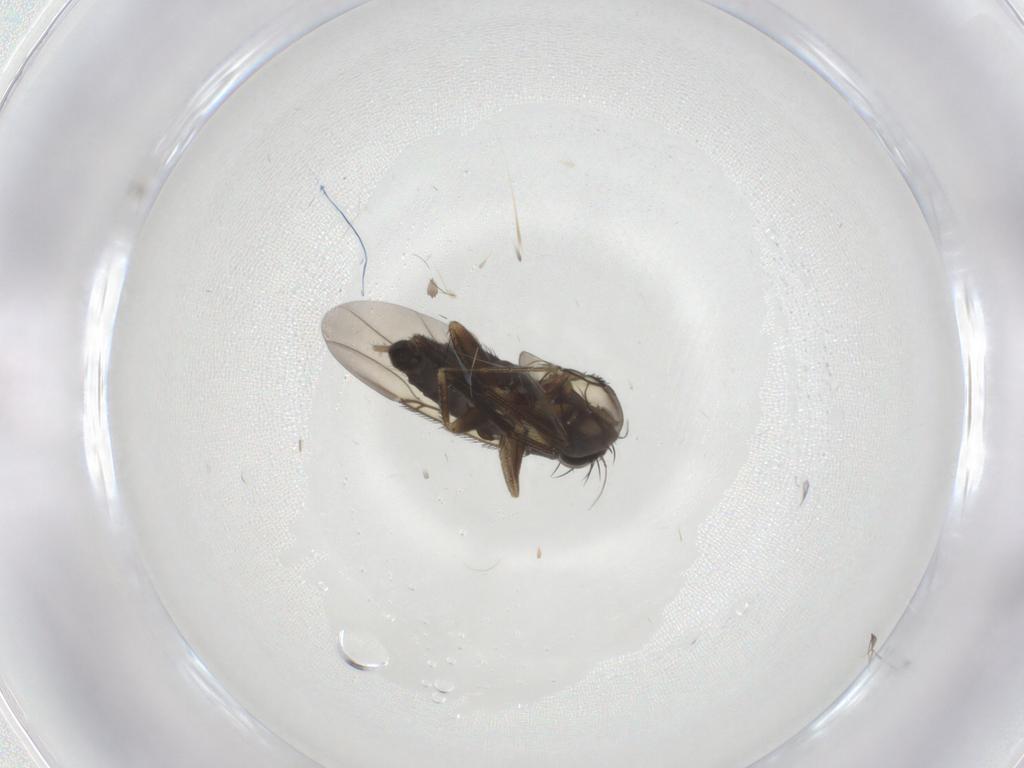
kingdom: Animalia
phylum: Arthropoda
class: Insecta
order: Diptera
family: Phoridae
